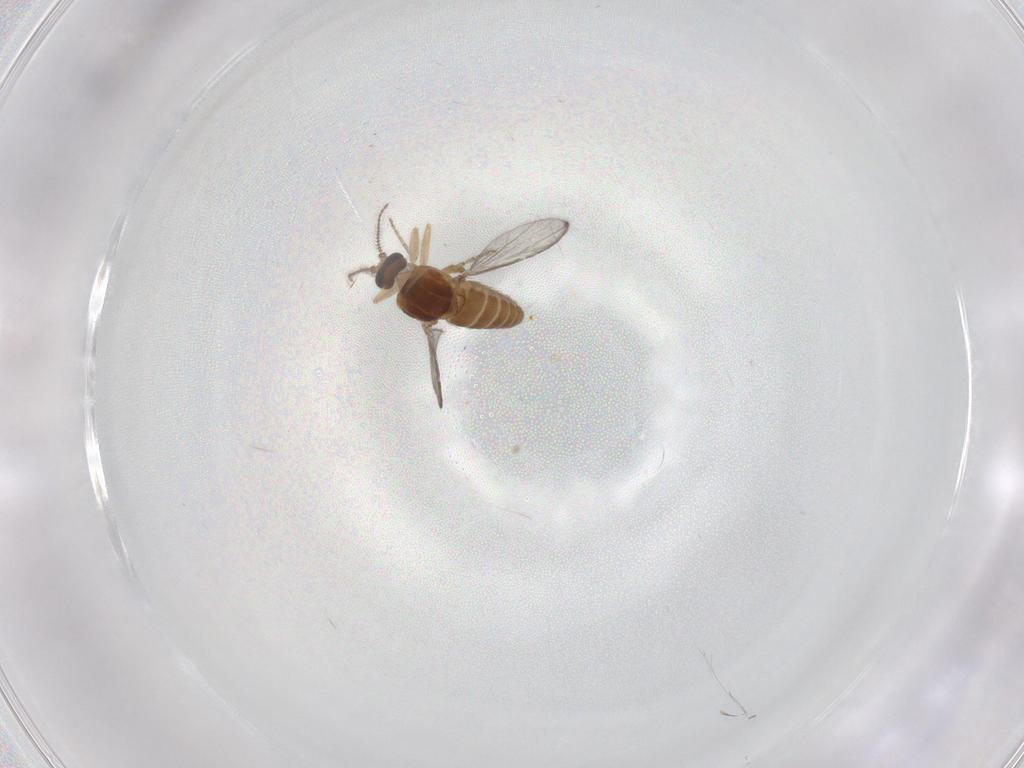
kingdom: Animalia
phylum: Arthropoda
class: Insecta
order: Diptera
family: Ceratopogonidae
